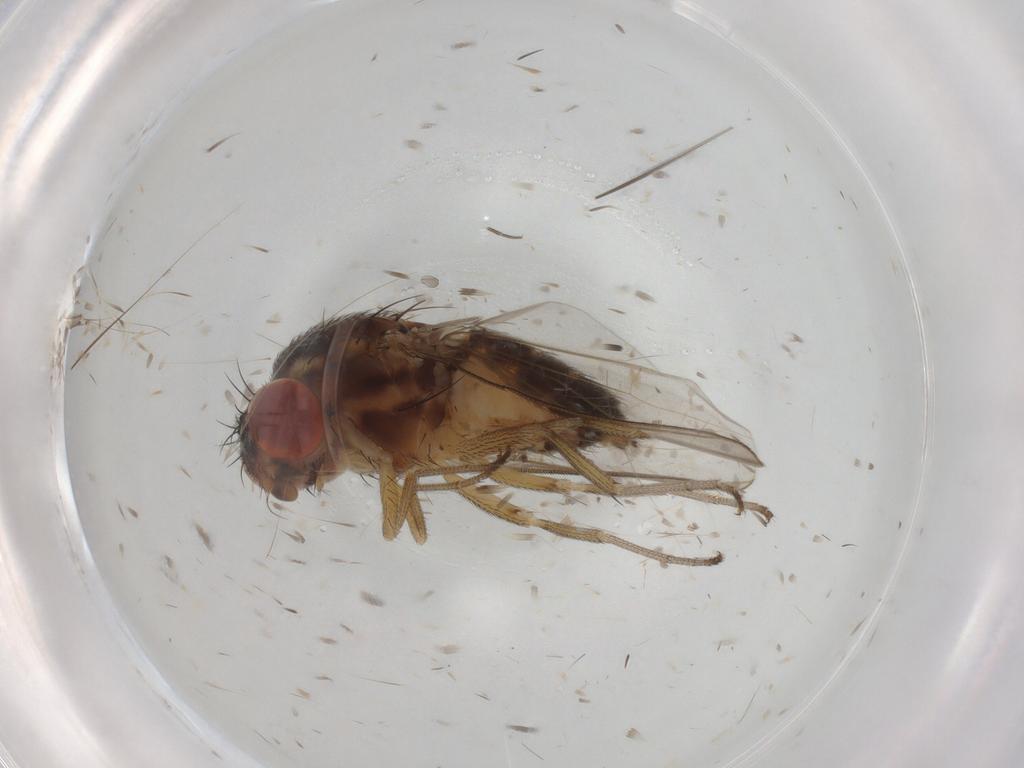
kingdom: Animalia
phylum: Arthropoda
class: Insecta
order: Diptera
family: Drosophilidae
